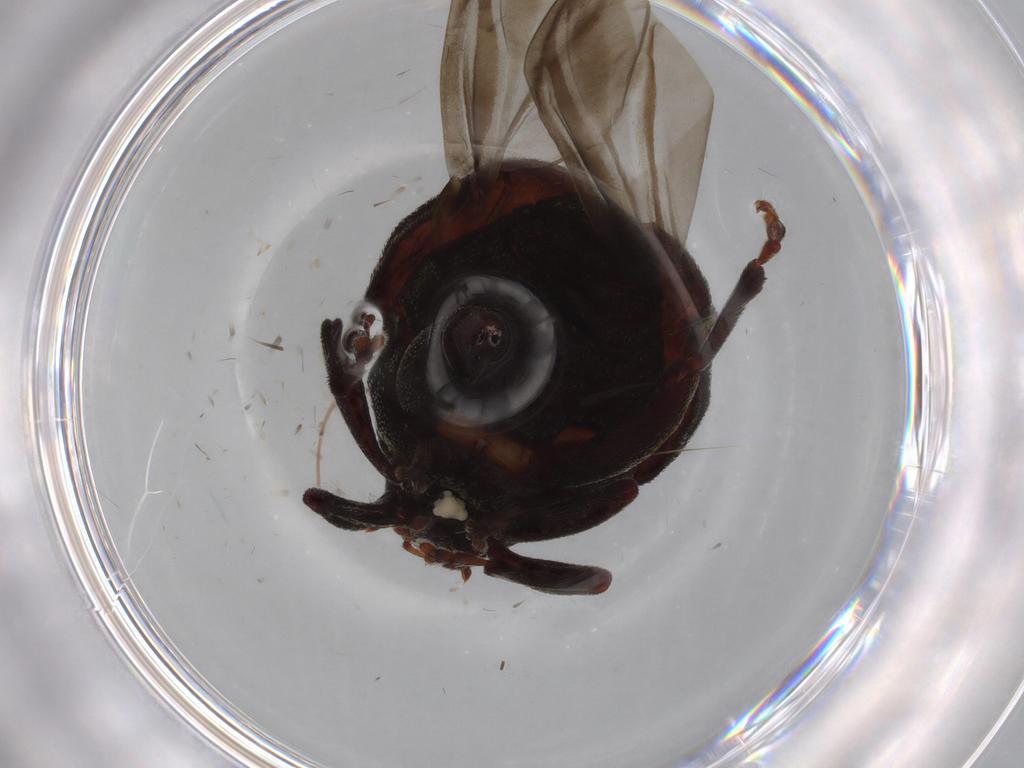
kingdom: Animalia
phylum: Arthropoda
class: Insecta
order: Coleoptera
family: Curculionidae
